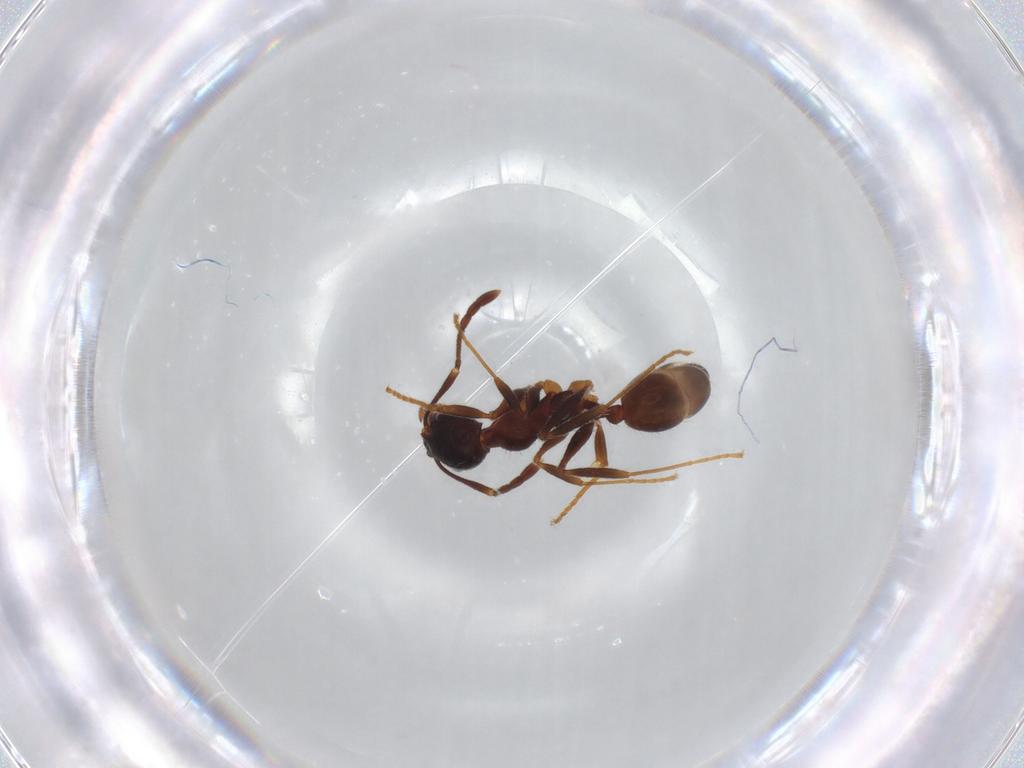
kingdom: Animalia
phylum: Arthropoda
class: Insecta
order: Hymenoptera
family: Formicidae
